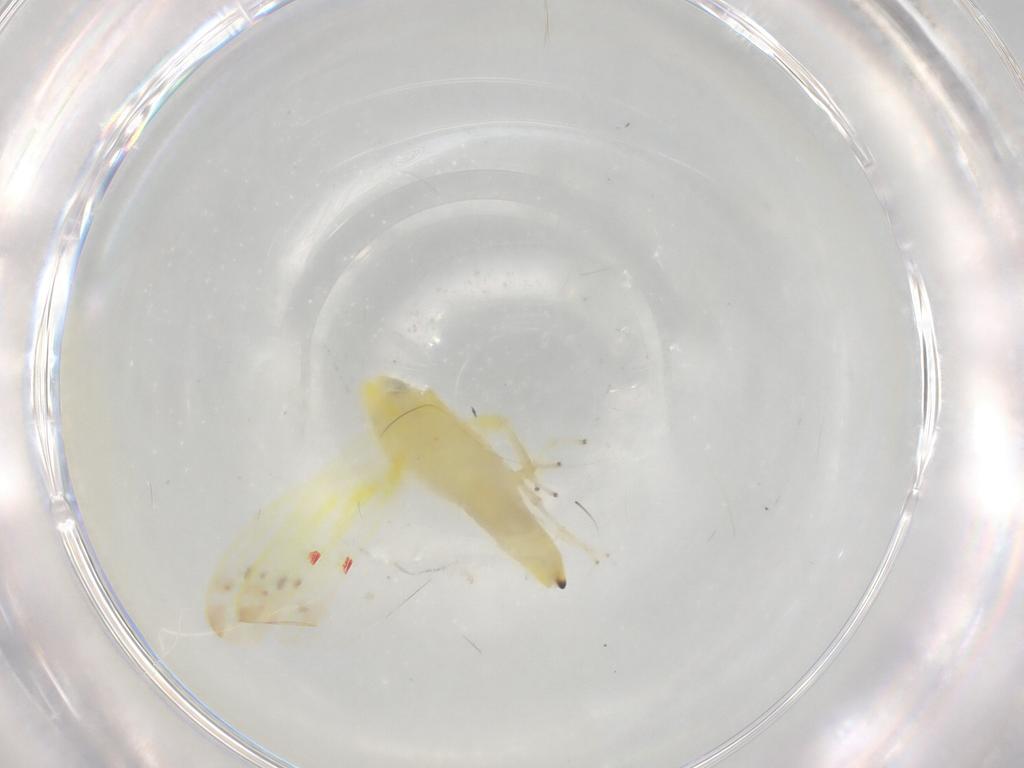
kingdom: Animalia
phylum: Arthropoda
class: Insecta
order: Hemiptera
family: Cicadellidae
